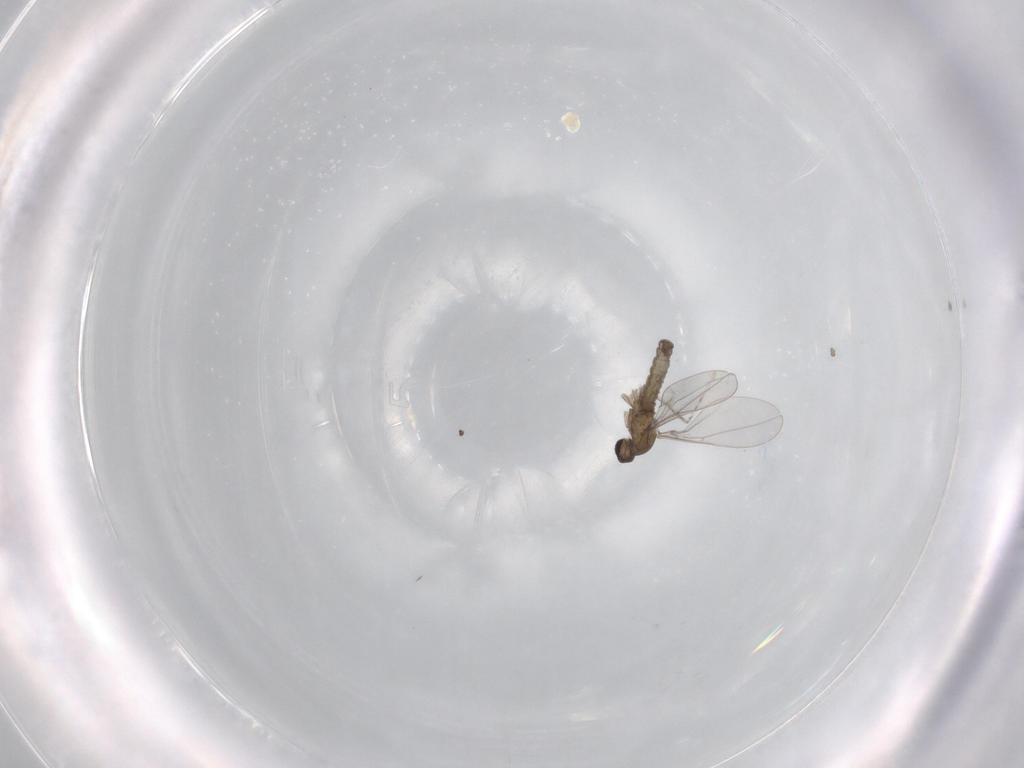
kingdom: Animalia
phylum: Arthropoda
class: Insecta
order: Diptera
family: Cecidomyiidae
